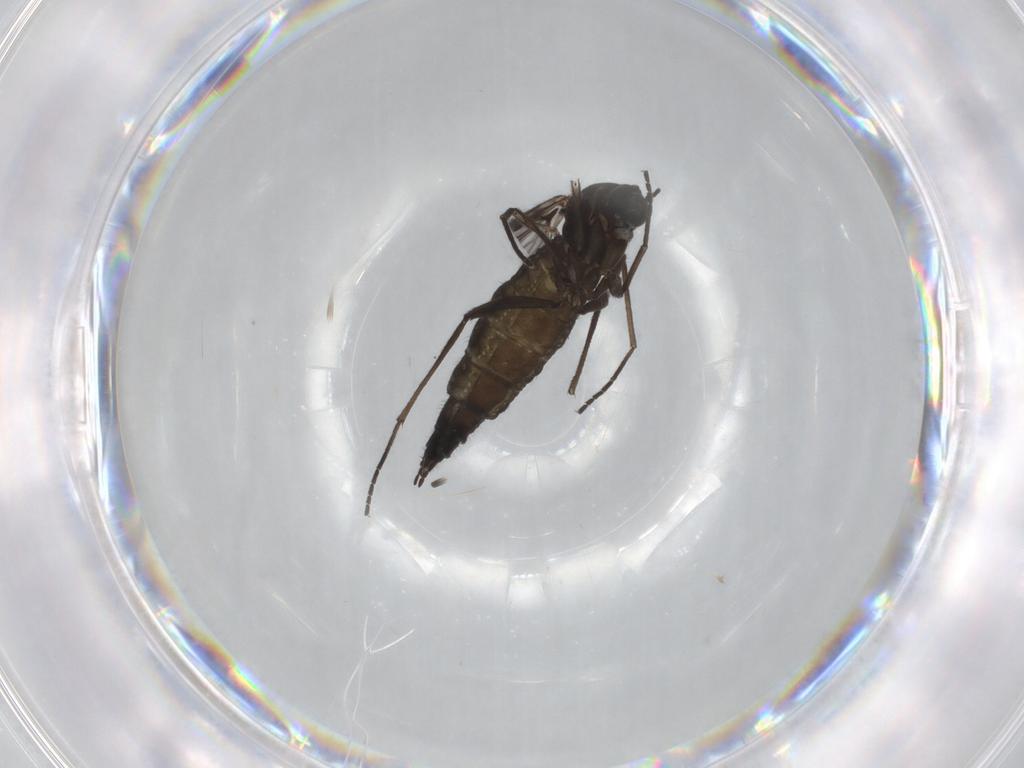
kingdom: Animalia
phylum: Arthropoda
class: Insecta
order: Diptera
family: Sciaridae
